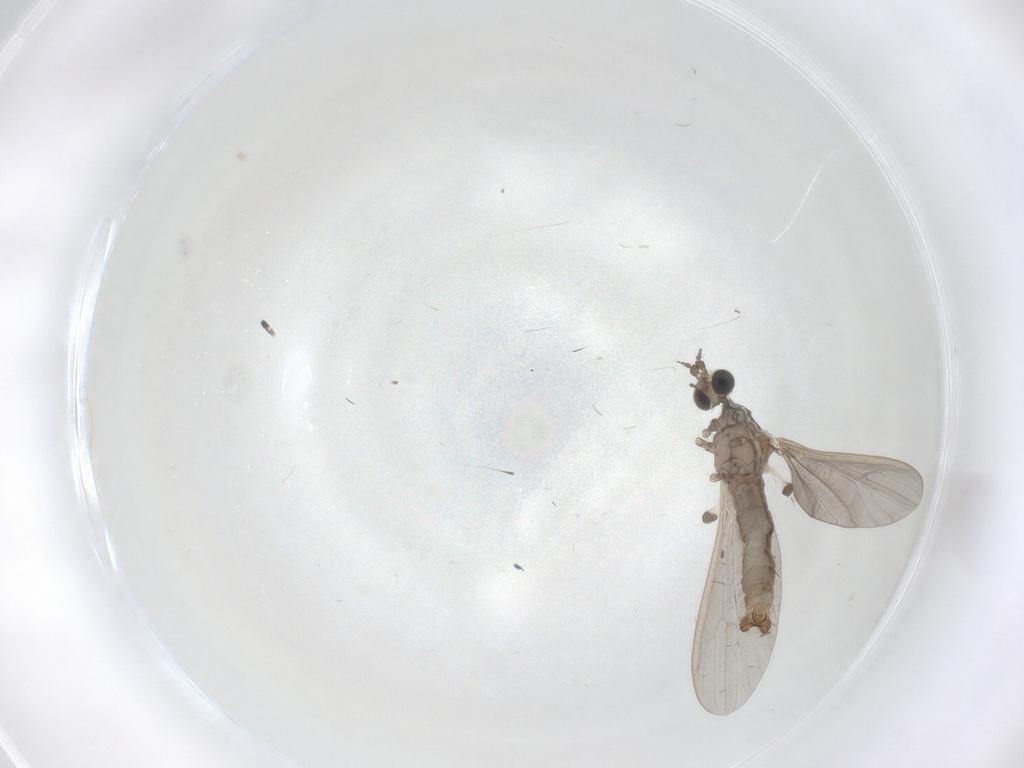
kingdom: Animalia
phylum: Arthropoda
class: Insecta
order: Diptera
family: Limoniidae
